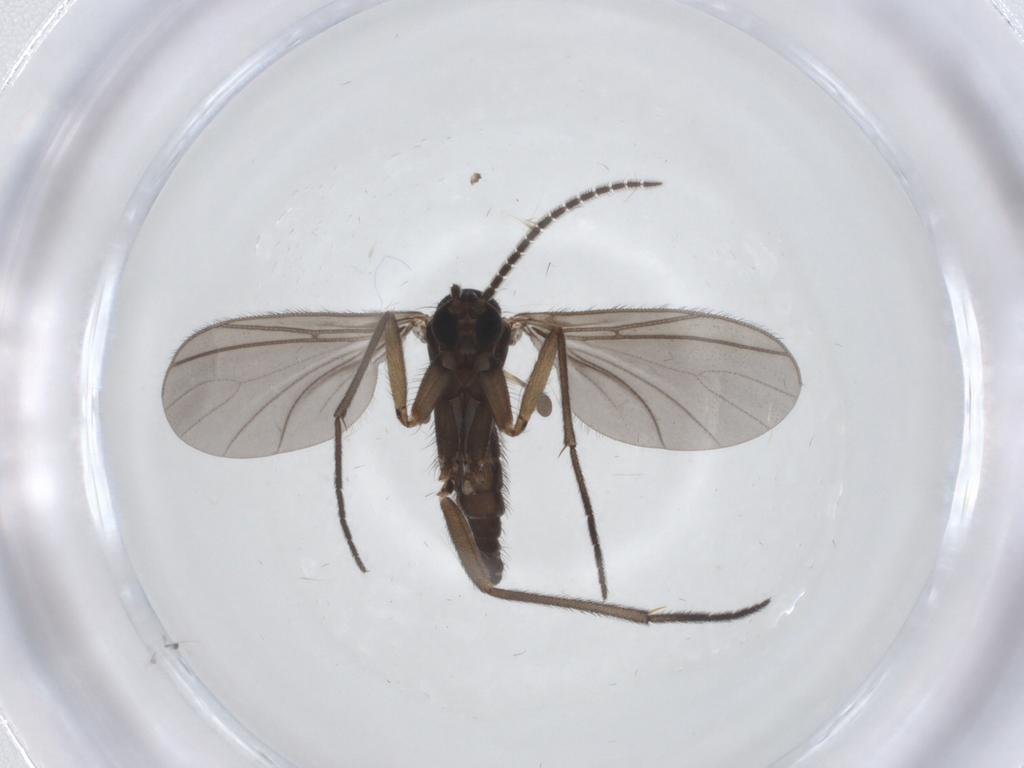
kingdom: Animalia
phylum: Arthropoda
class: Insecta
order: Diptera
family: Sciaridae
